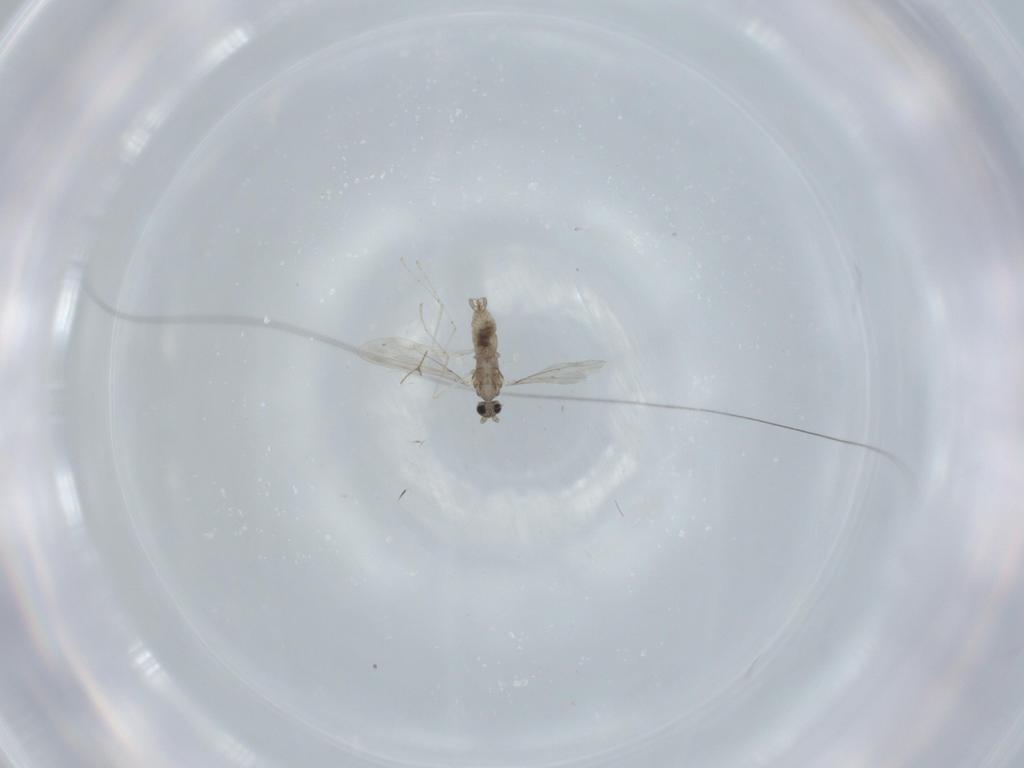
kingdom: Animalia
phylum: Arthropoda
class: Insecta
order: Diptera
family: Cecidomyiidae
